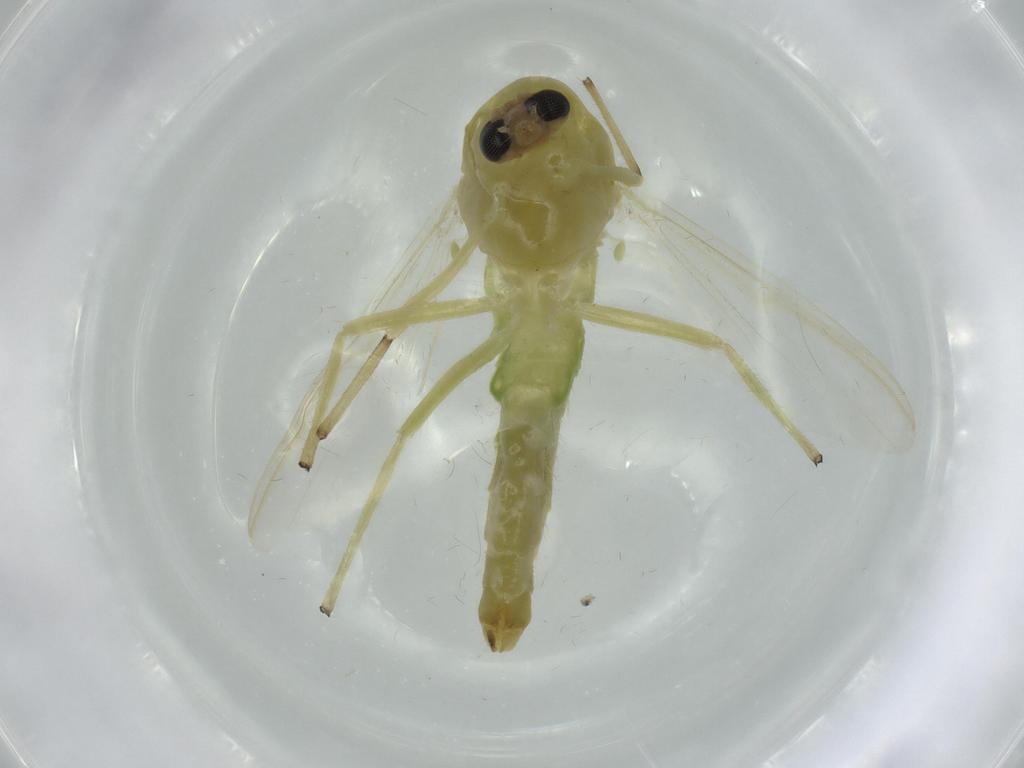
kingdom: Animalia
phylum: Arthropoda
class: Insecta
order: Diptera
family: Chironomidae
